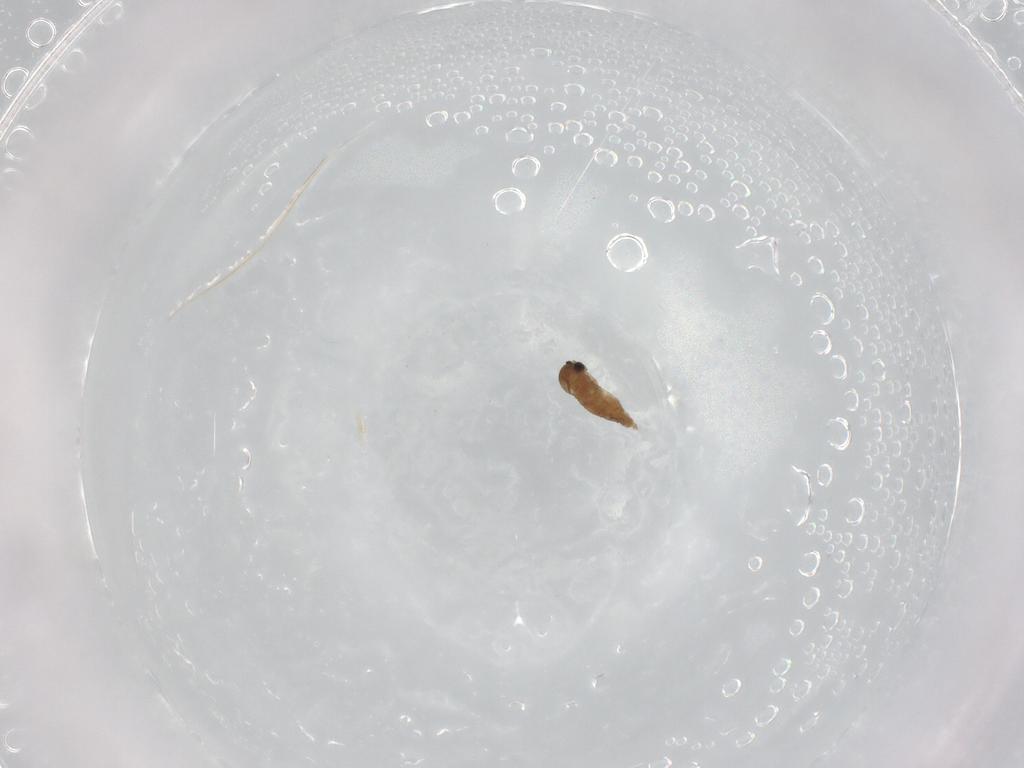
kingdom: Animalia
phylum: Arthropoda
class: Insecta
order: Diptera
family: Cecidomyiidae
